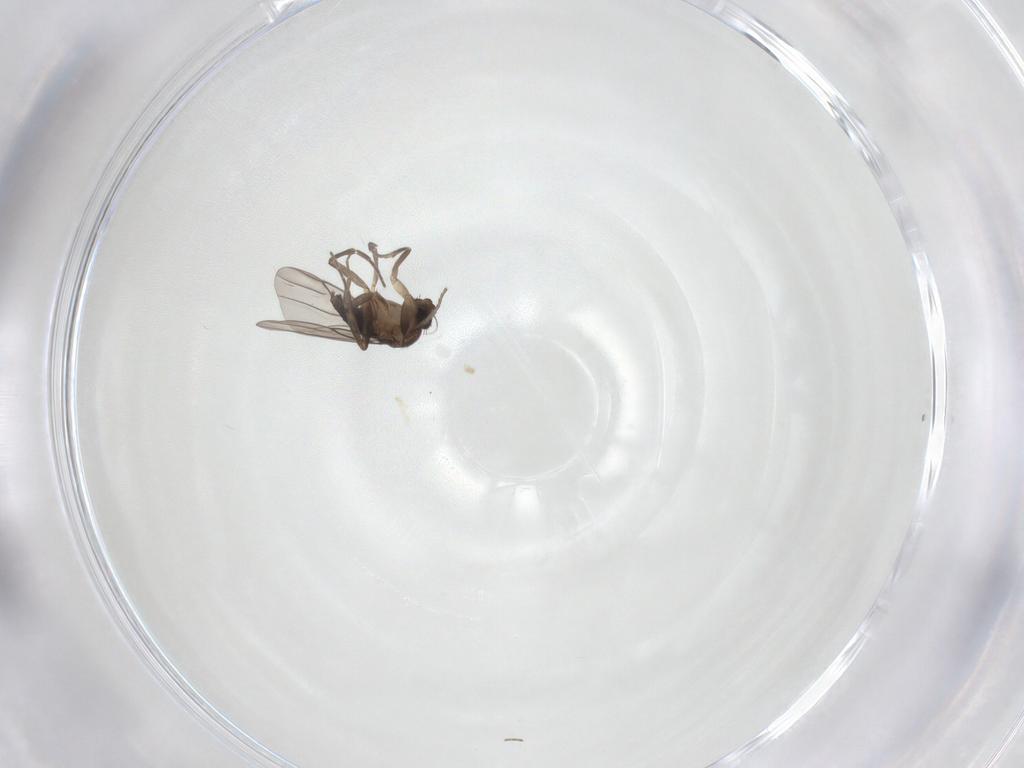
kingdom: Animalia
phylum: Arthropoda
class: Insecta
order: Diptera
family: Phoridae
